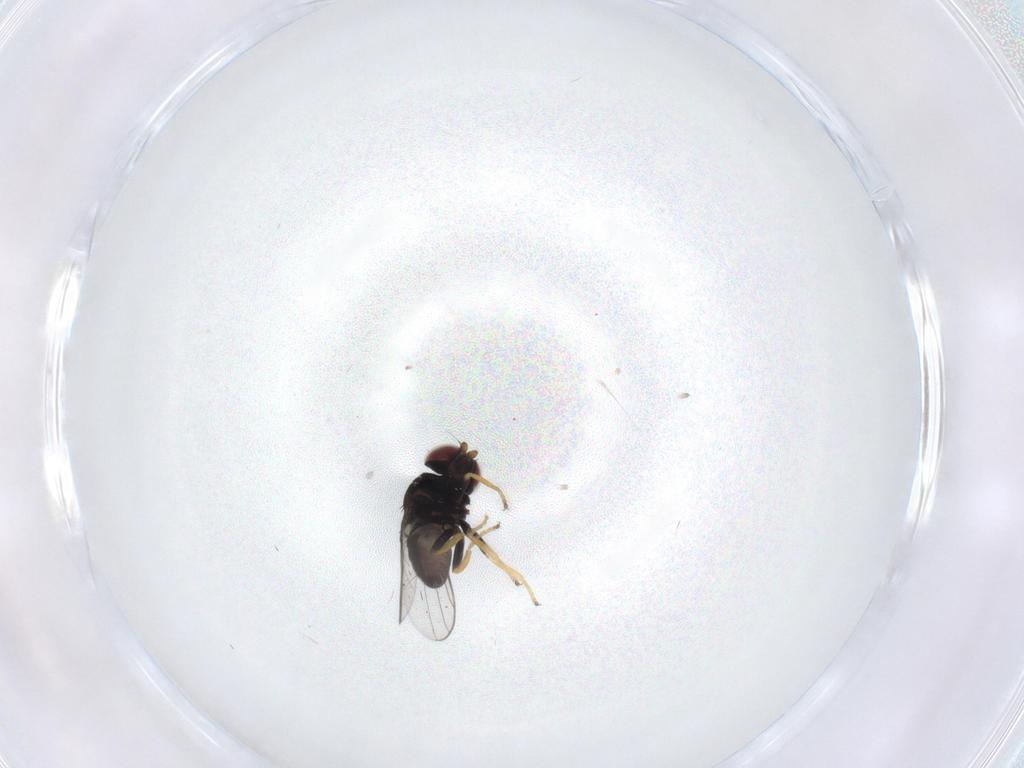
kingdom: Animalia
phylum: Arthropoda
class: Insecta
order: Diptera
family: Chloropidae
